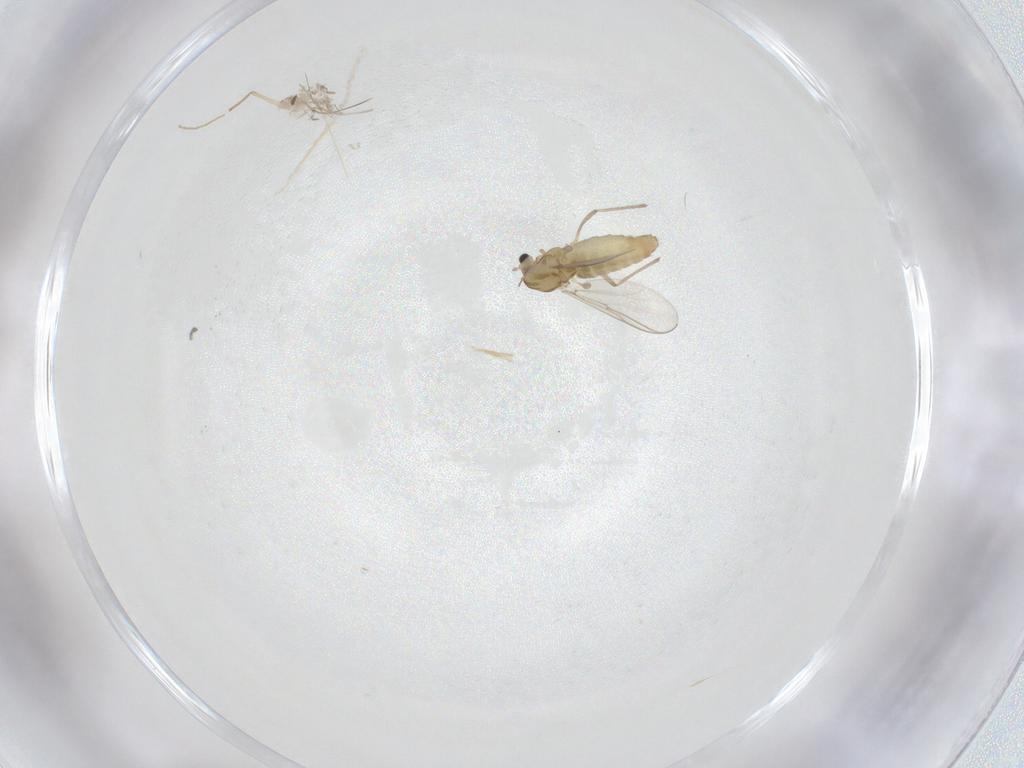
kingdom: Animalia
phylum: Arthropoda
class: Insecta
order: Diptera
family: Chironomidae
